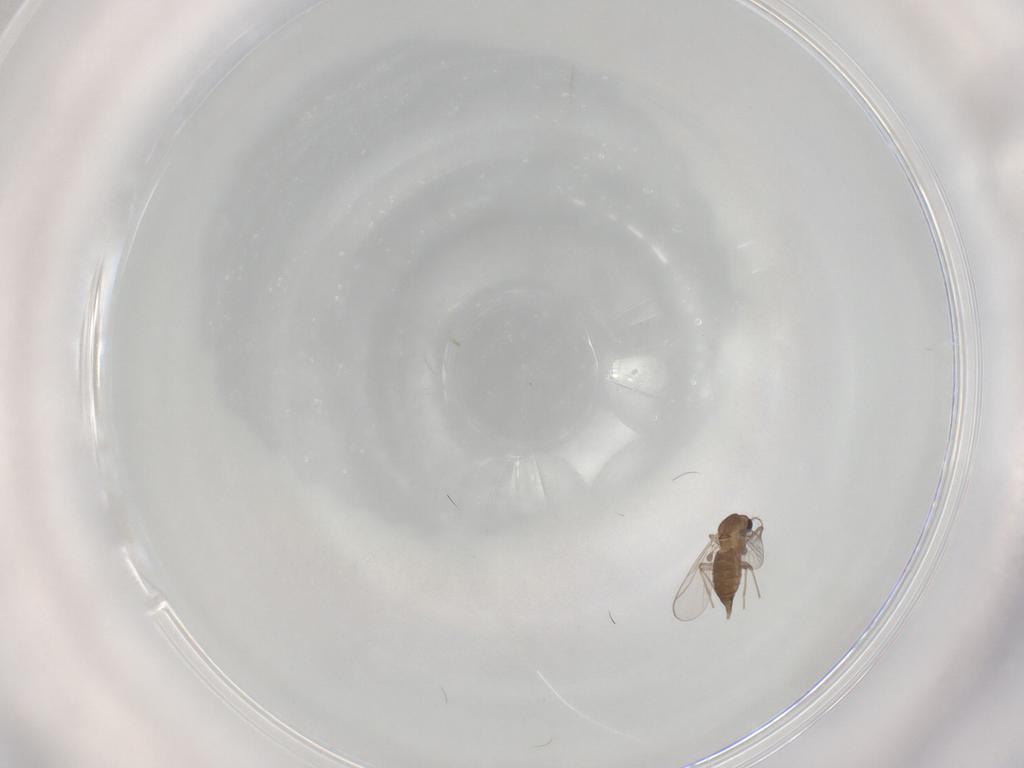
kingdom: Animalia
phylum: Arthropoda
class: Insecta
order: Diptera
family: Chironomidae
